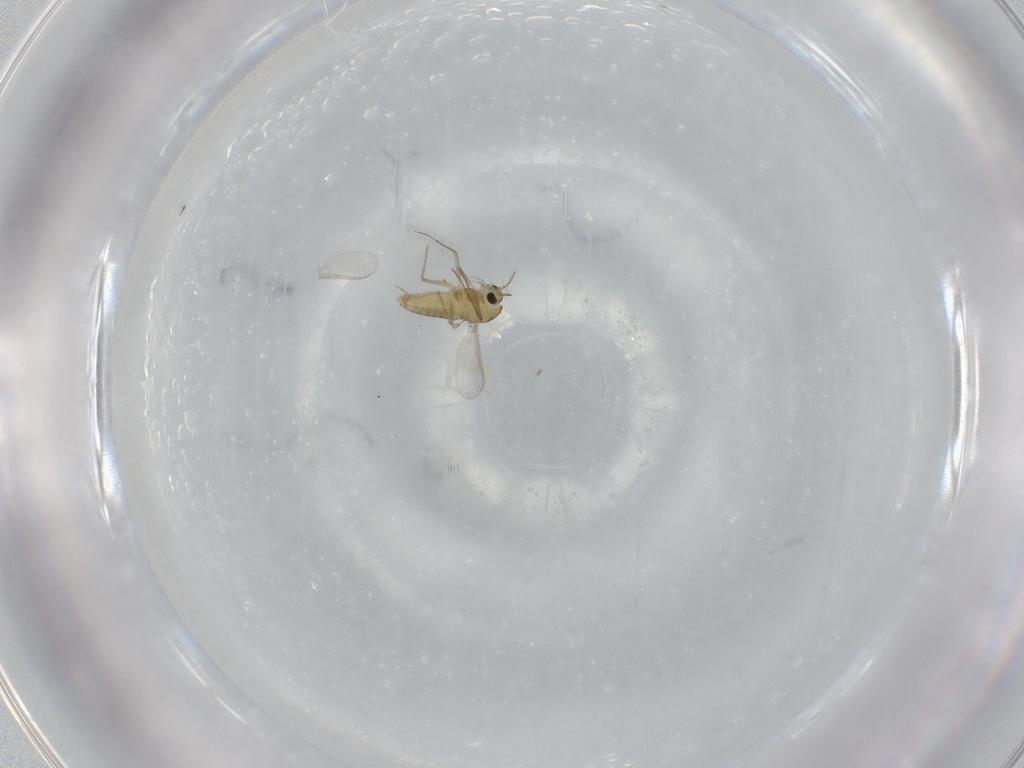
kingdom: Animalia
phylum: Arthropoda
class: Insecta
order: Diptera
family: Chironomidae
